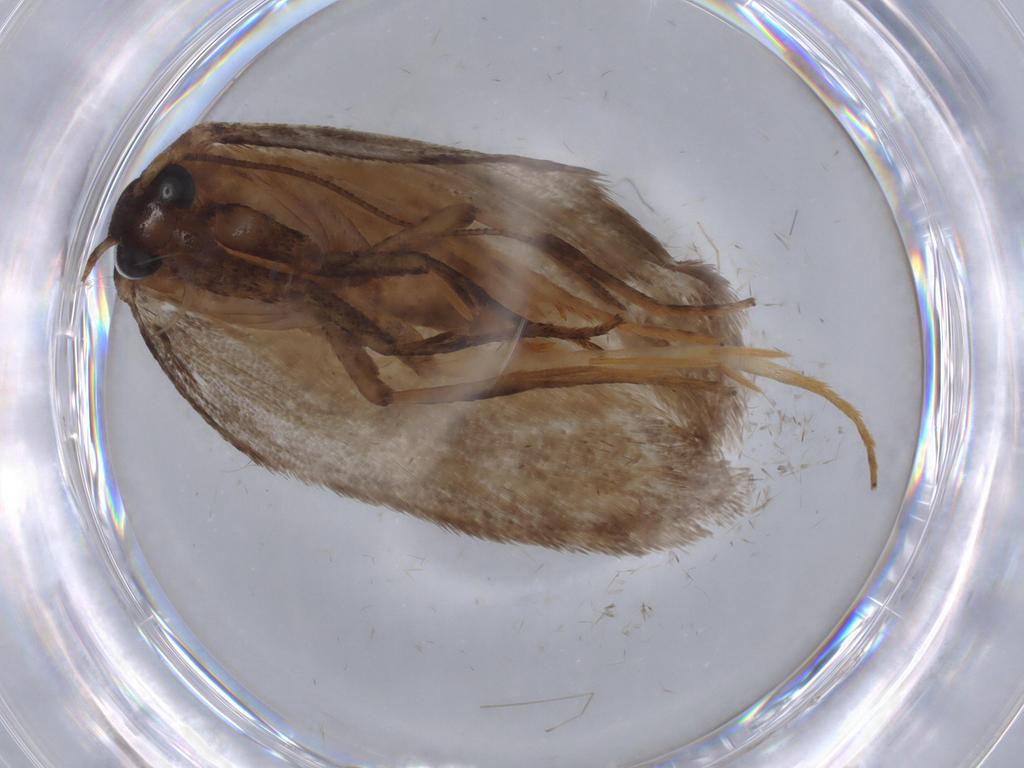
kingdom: Animalia
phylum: Arthropoda
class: Insecta
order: Lepidoptera
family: Oecophoridae
